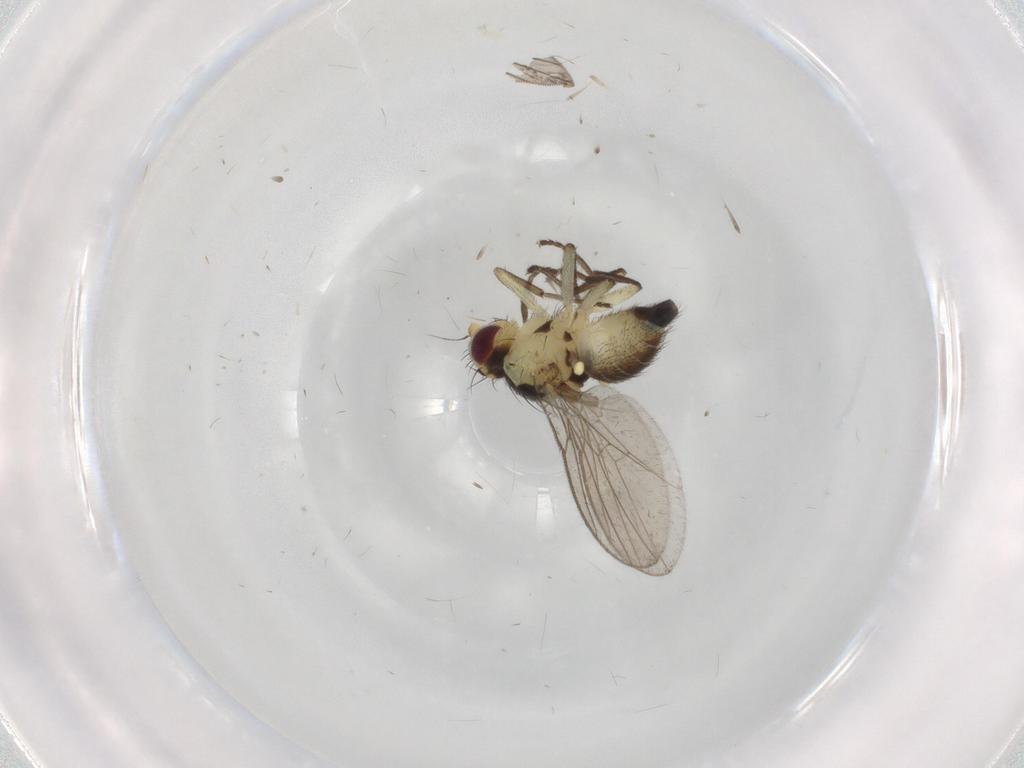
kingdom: Animalia
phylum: Arthropoda
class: Insecta
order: Diptera
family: Agromyzidae
